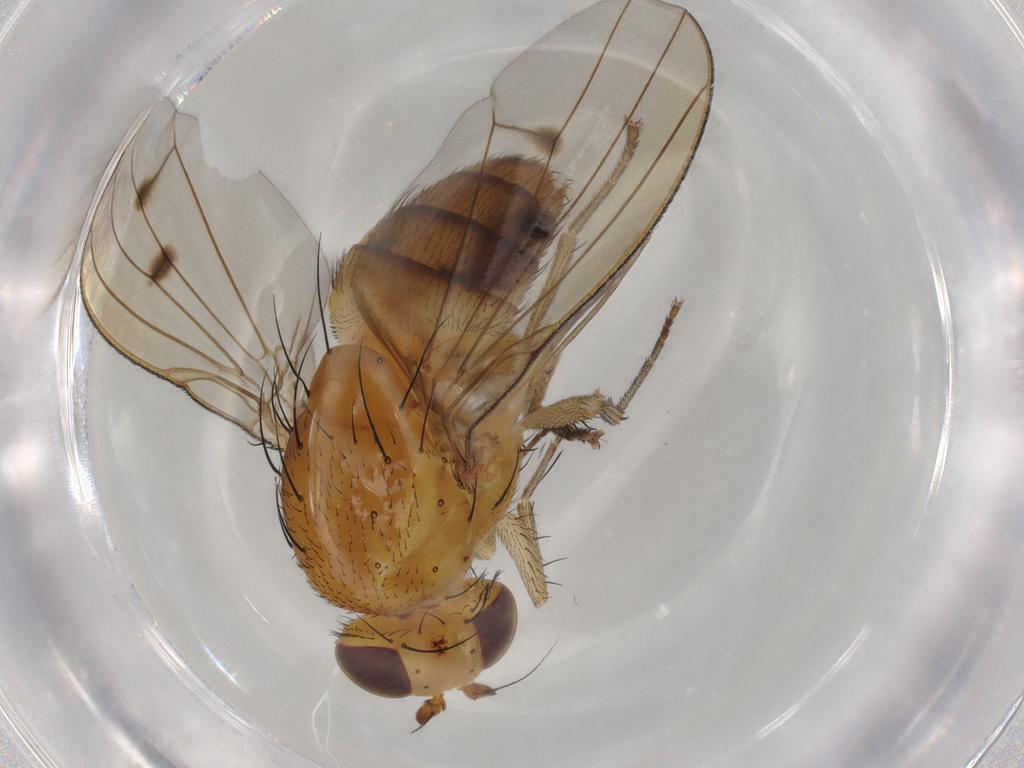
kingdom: Animalia
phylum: Arthropoda
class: Insecta
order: Diptera
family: Lauxaniidae
